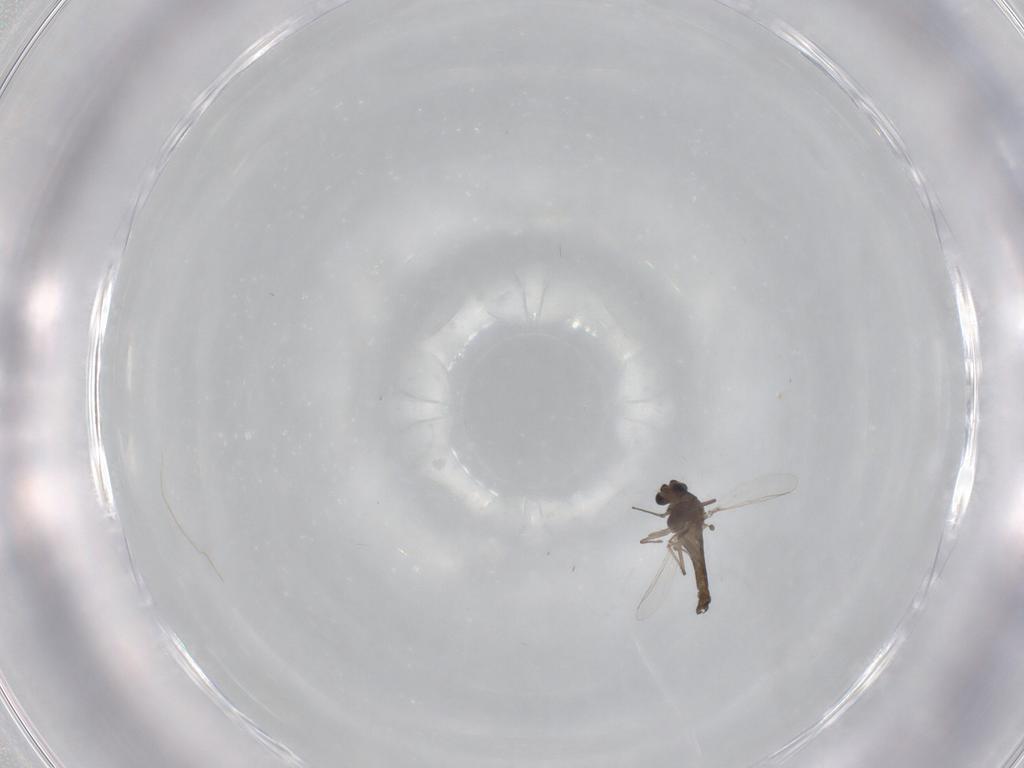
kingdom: Animalia
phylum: Arthropoda
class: Insecta
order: Diptera
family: Chironomidae
